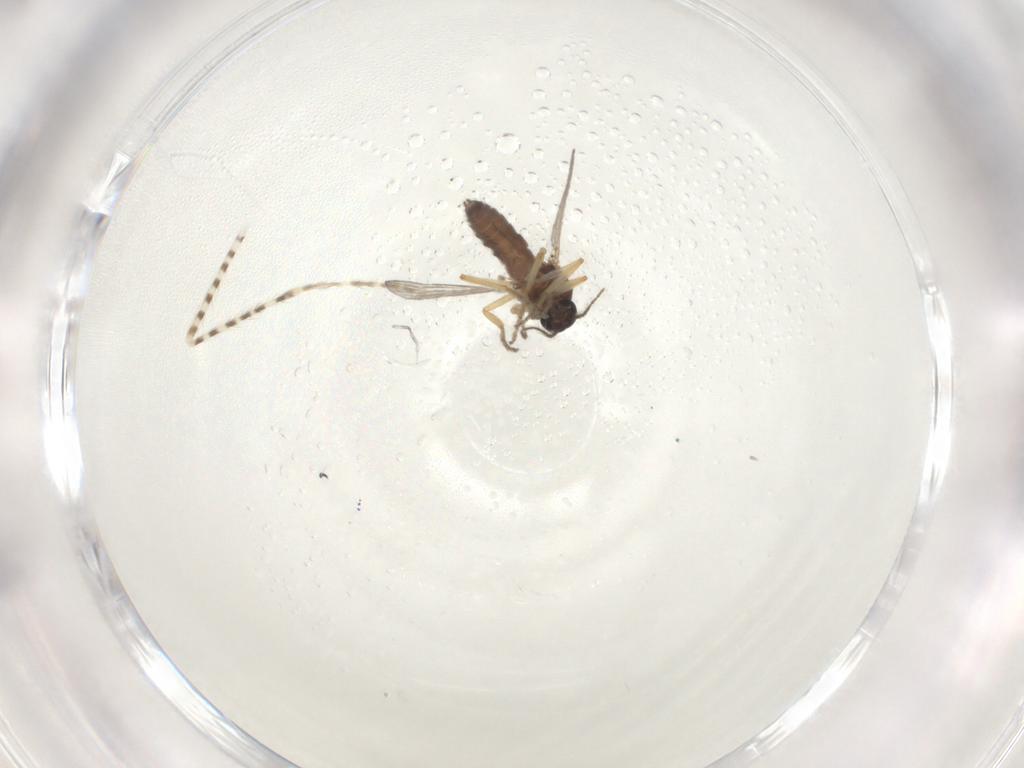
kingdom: Animalia
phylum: Arthropoda
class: Insecta
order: Diptera
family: Ceratopogonidae
